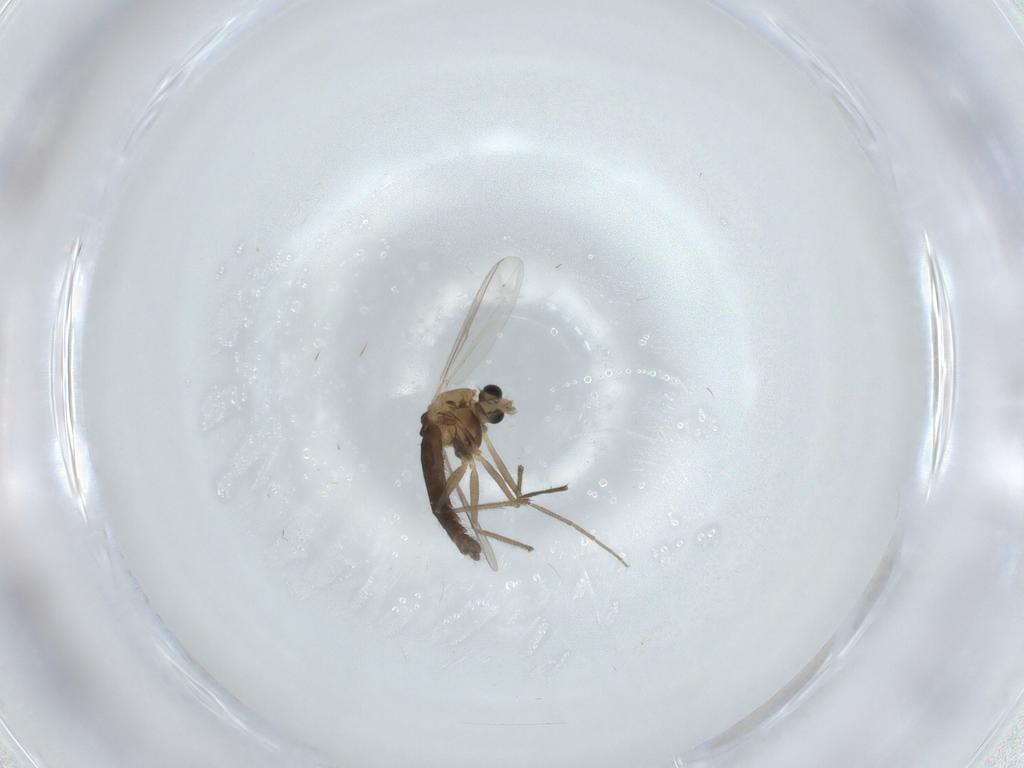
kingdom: Animalia
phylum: Arthropoda
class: Insecta
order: Diptera
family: Chironomidae
